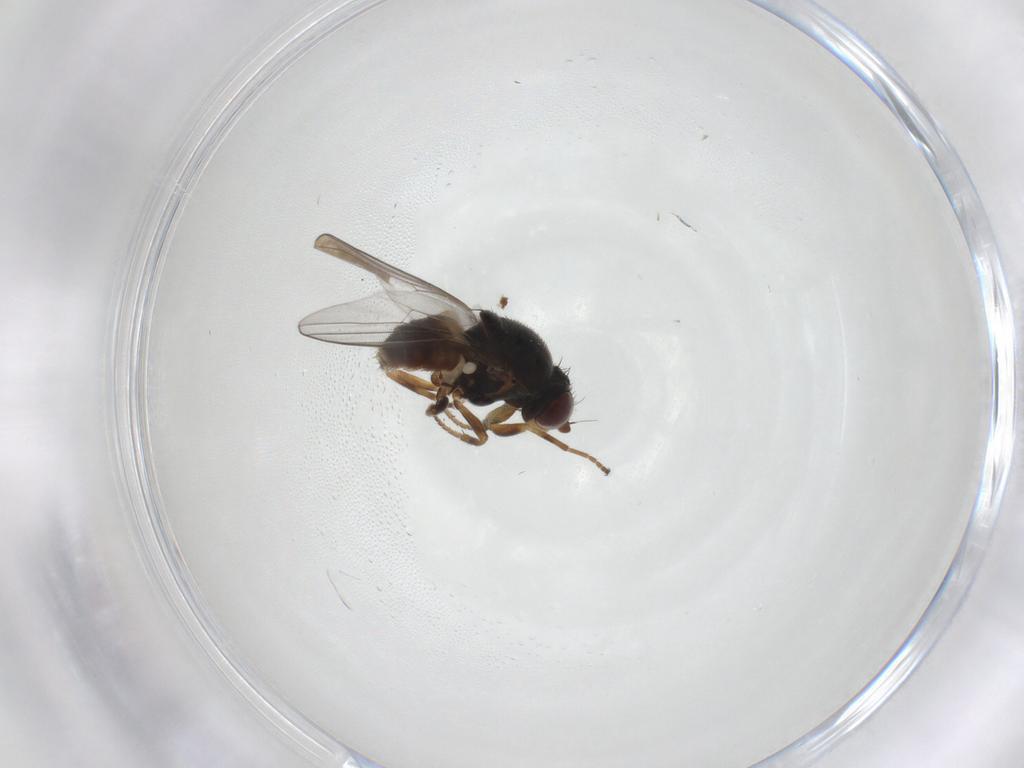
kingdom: Animalia
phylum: Arthropoda
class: Insecta
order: Diptera
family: Chloropidae
